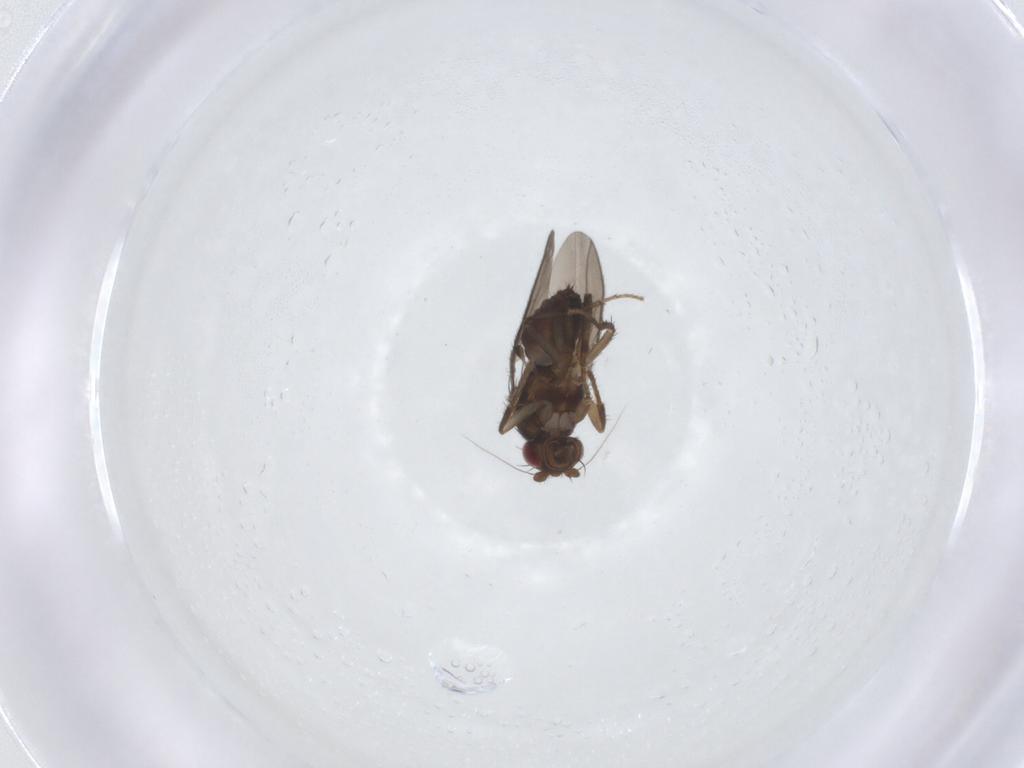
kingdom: Animalia
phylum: Arthropoda
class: Insecta
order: Diptera
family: Sphaeroceridae
